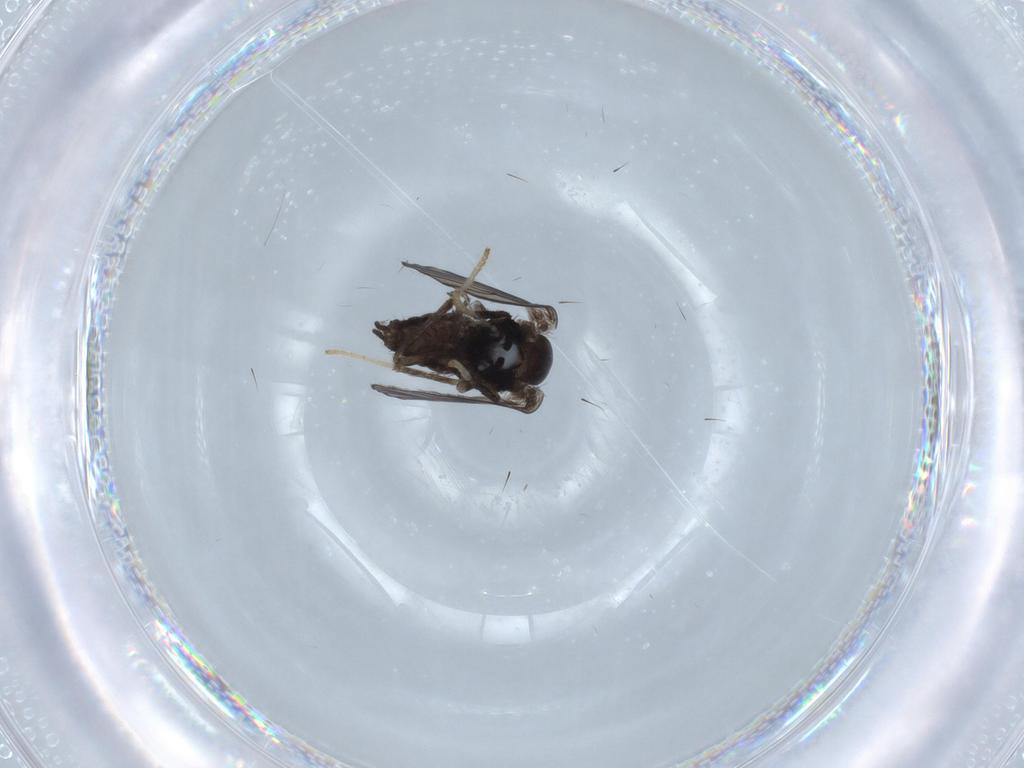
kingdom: Animalia
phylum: Arthropoda
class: Insecta
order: Diptera
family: Psychodidae
